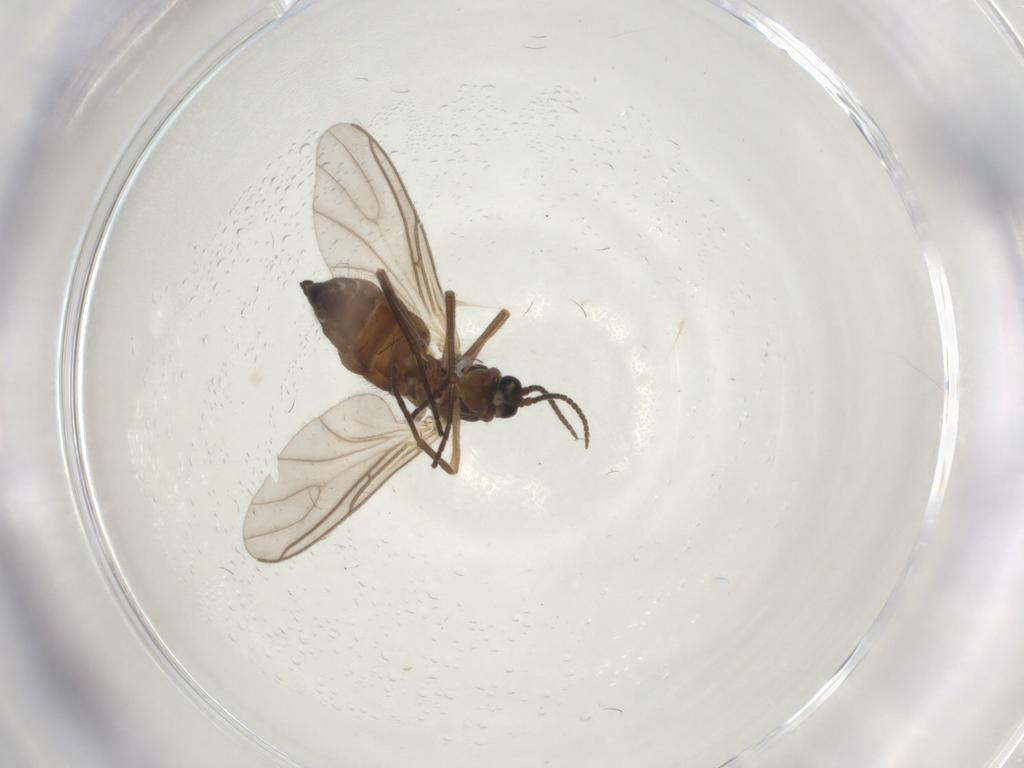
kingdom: Animalia
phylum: Arthropoda
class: Insecta
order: Diptera
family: Sciaridae
